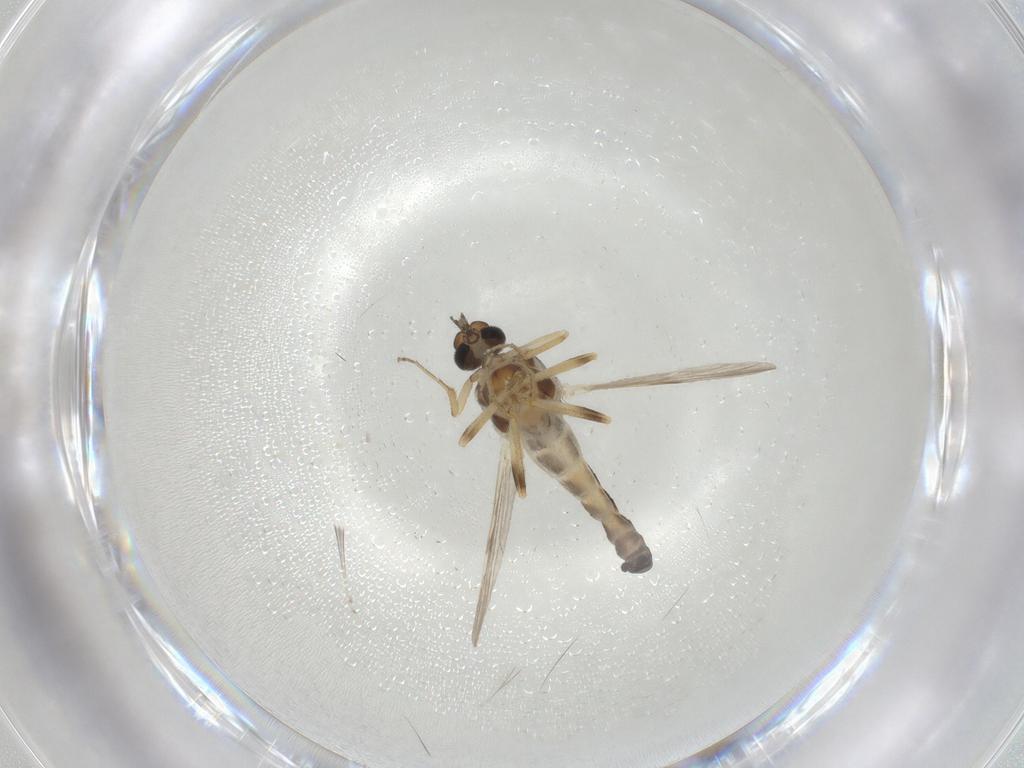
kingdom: Animalia
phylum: Arthropoda
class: Insecta
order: Diptera
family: Ceratopogonidae
